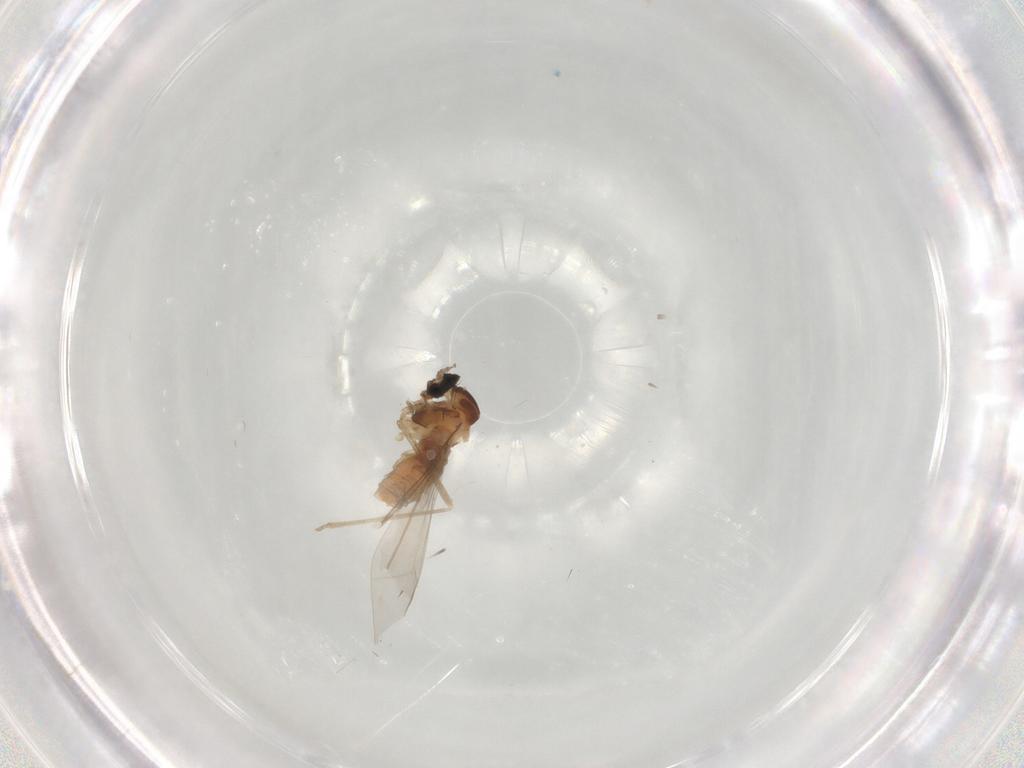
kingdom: Animalia
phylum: Arthropoda
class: Insecta
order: Diptera
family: Cecidomyiidae
